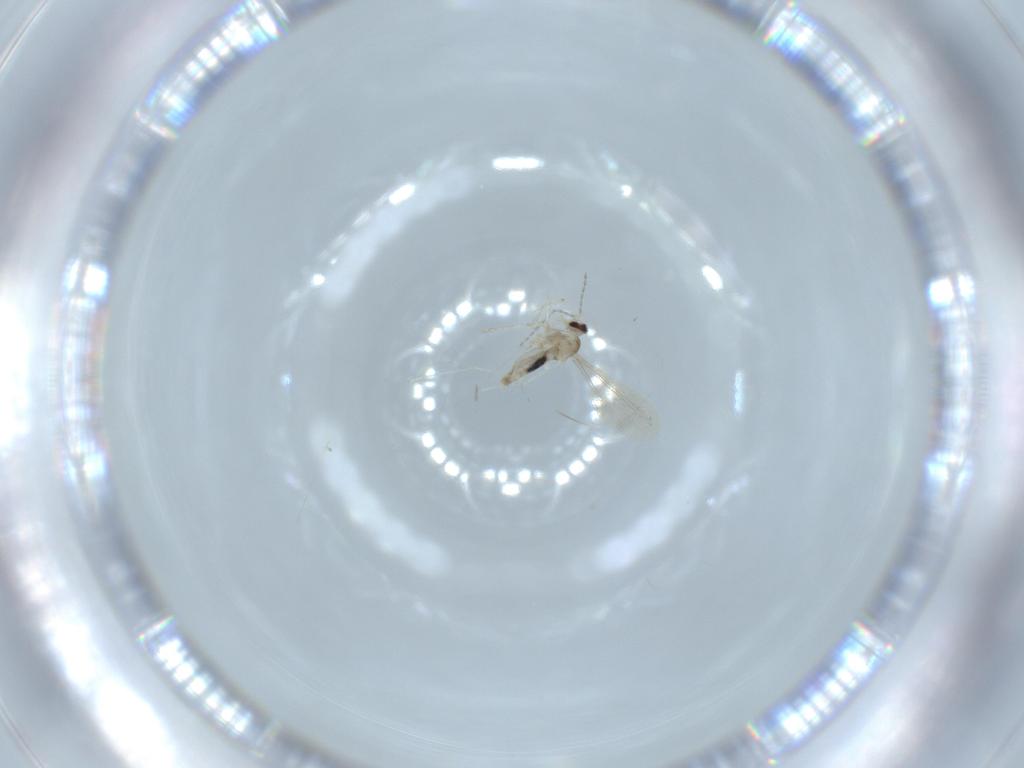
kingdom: Animalia
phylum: Arthropoda
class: Insecta
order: Diptera
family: Cecidomyiidae
